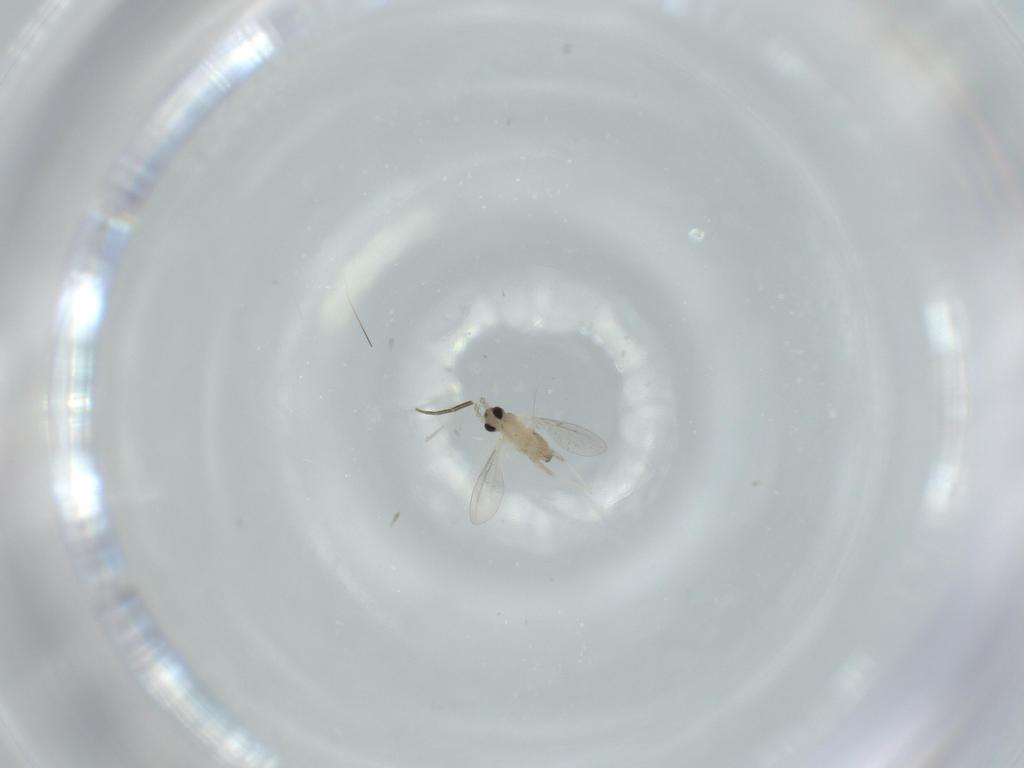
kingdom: Animalia
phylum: Arthropoda
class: Insecta
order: Diptera
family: Cecidomyiidae
